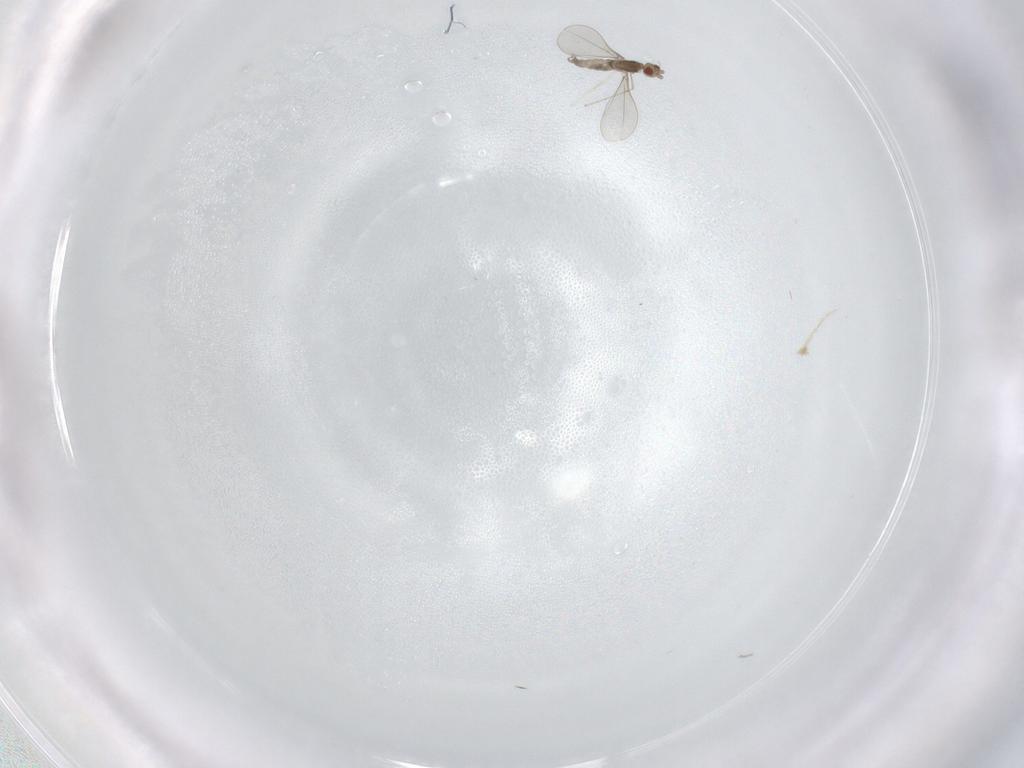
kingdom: Animalia
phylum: Arthropoda
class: Insecta
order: Diptera
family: Cecidomyiidae
